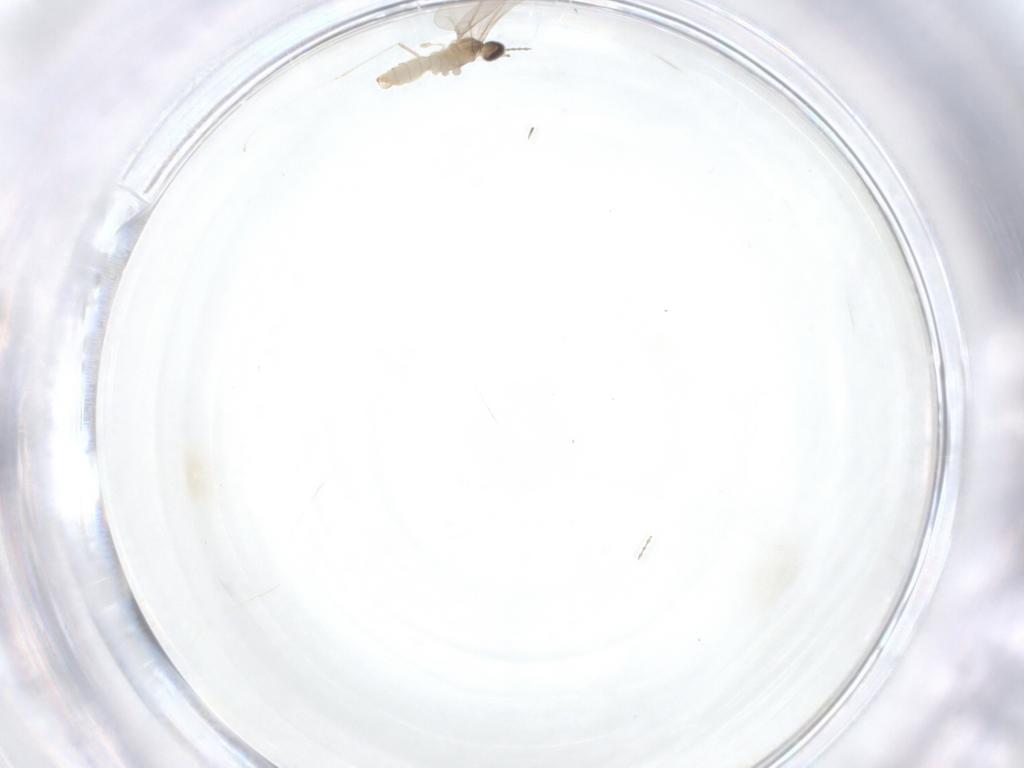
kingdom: Animalia
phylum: Arthropoda
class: Insecta
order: Diptera
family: Cecidomyiidae
